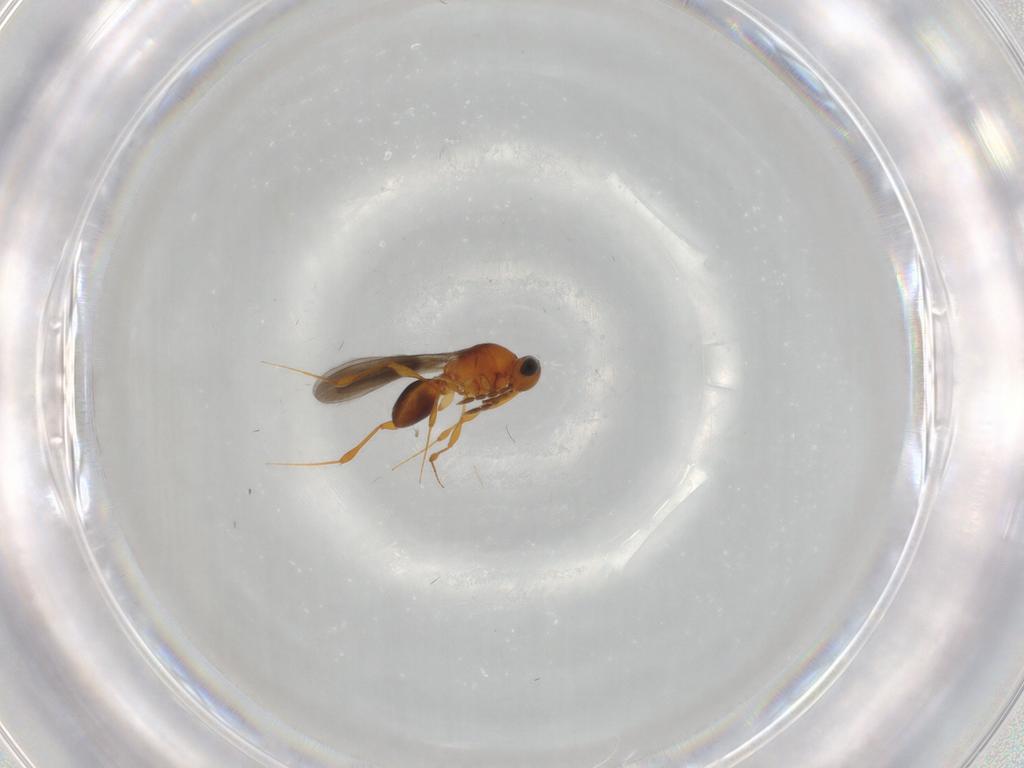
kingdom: Animalia
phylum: Arthropoda
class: Insecta
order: Hymenoptera
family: Platygastridae
